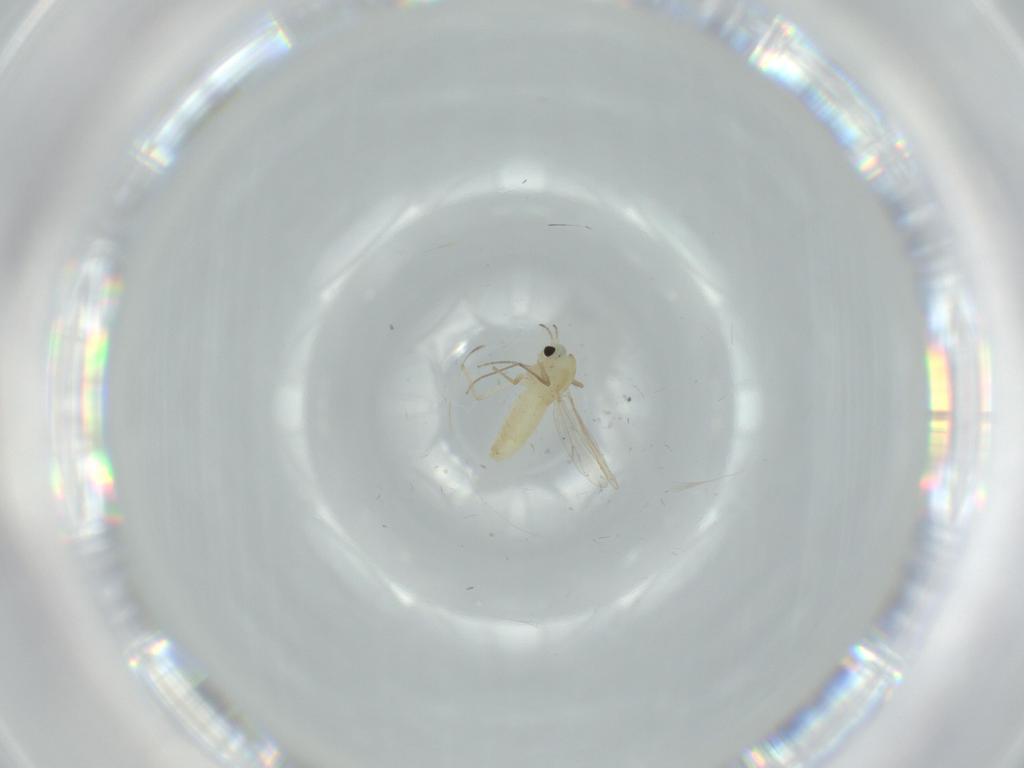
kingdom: Animalia
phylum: Arthropoda
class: Insecta
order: Diptera
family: Chironomidae
